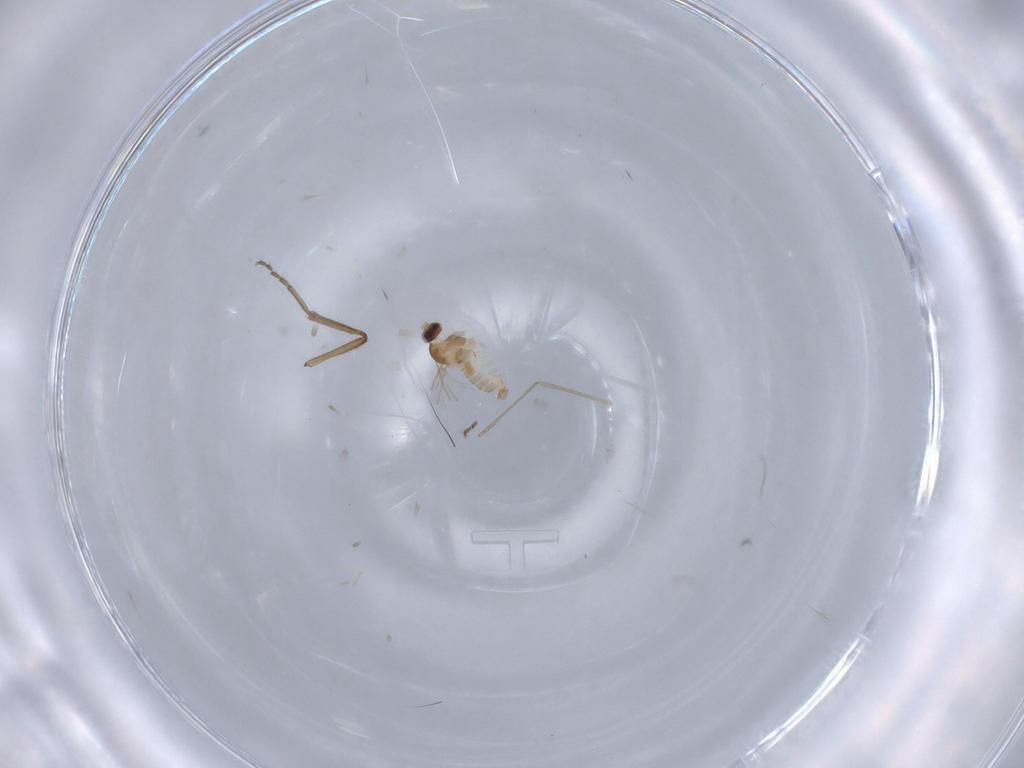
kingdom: Animalia
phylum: Arthropoda
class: Insecta
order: Diptera
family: Cecidomyiidae
